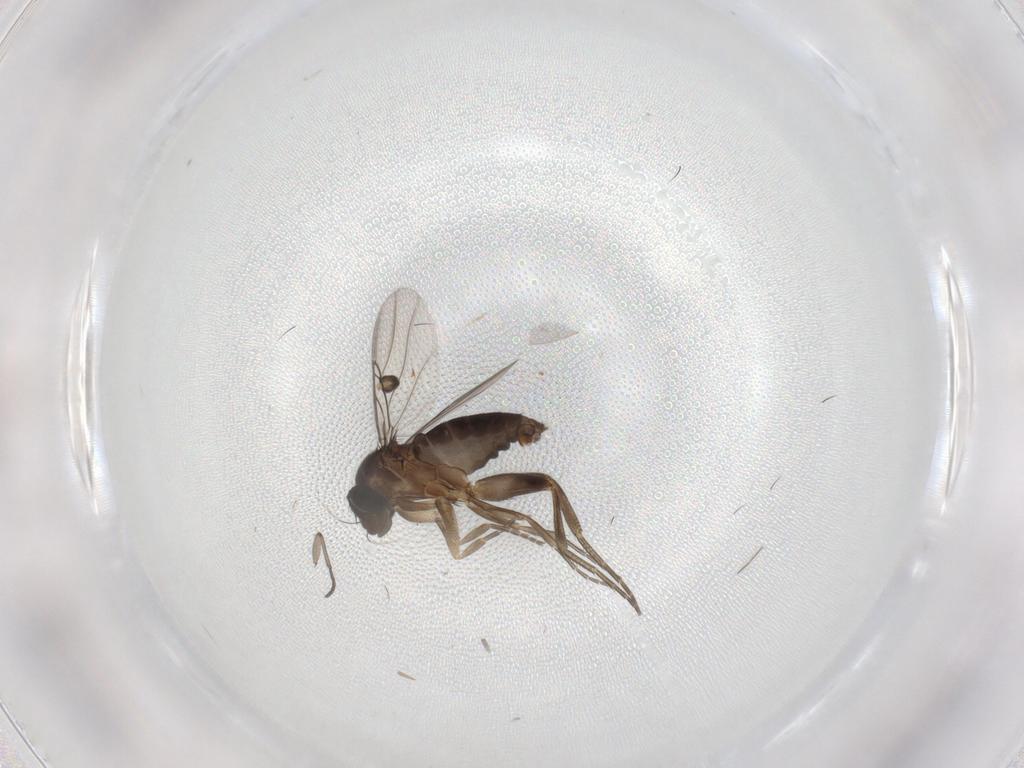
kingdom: Animalia
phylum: Arthropoda
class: Insecta
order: Diptera
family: Phoridae
